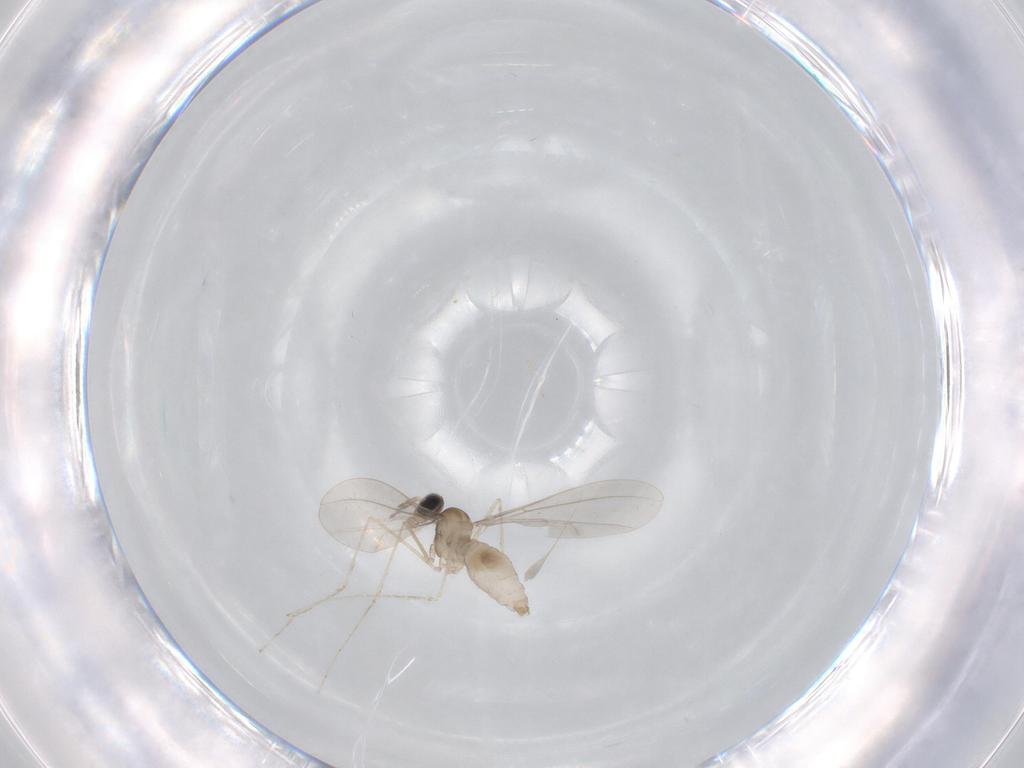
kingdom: Animalia
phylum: Arthropoda
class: Insecta
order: Diptera
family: Cecidomyiidae
